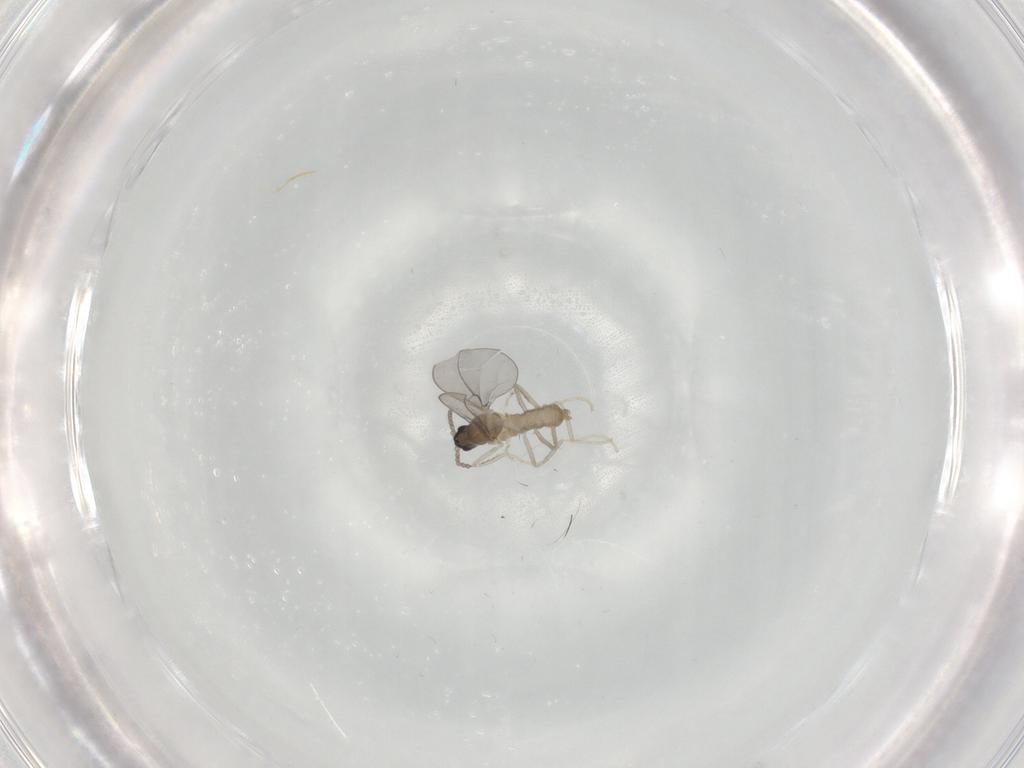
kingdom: Animalia
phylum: Arthropoda
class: Insecta
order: Diptera
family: Cecidomyiidae
